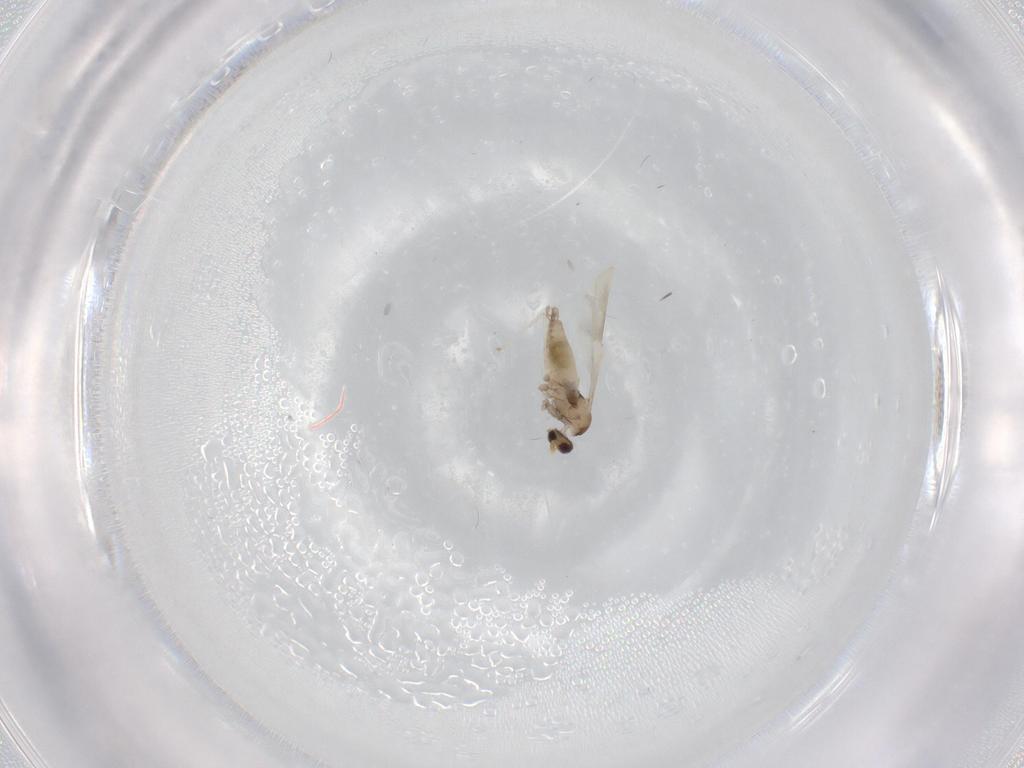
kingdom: Animalia
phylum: Arthropoda
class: Insecta
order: Diptera
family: Cecidomyiidae
